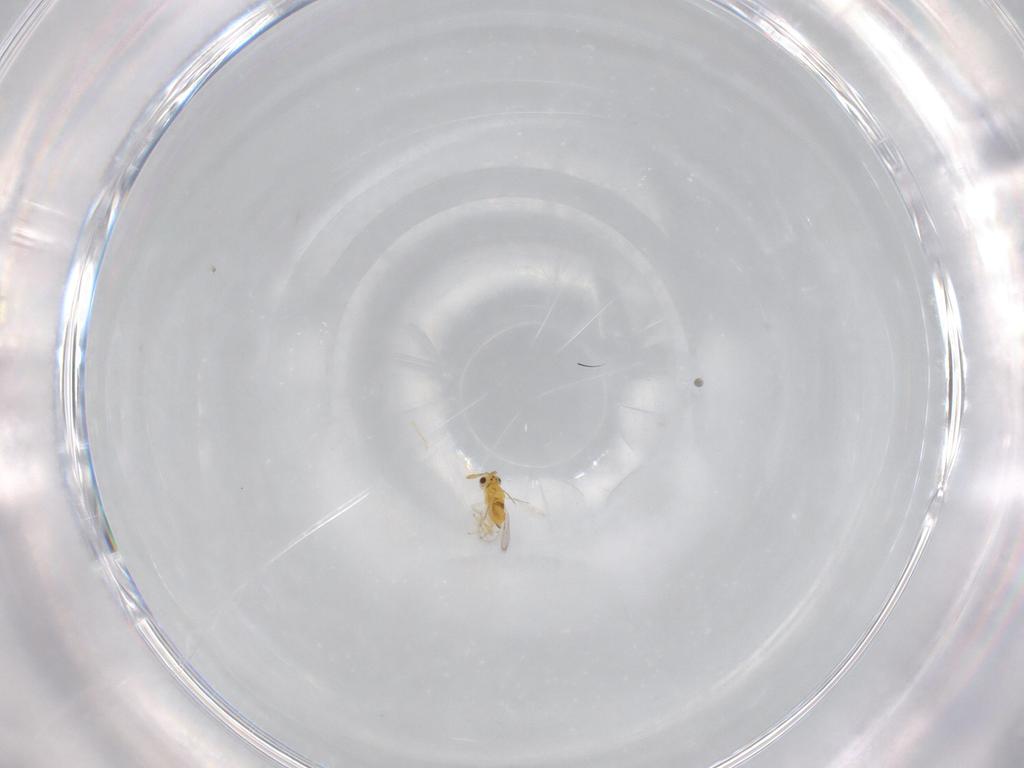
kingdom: Animalia
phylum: Arthropoda
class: Insecta
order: Hymenoptera
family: Aphelinidae
